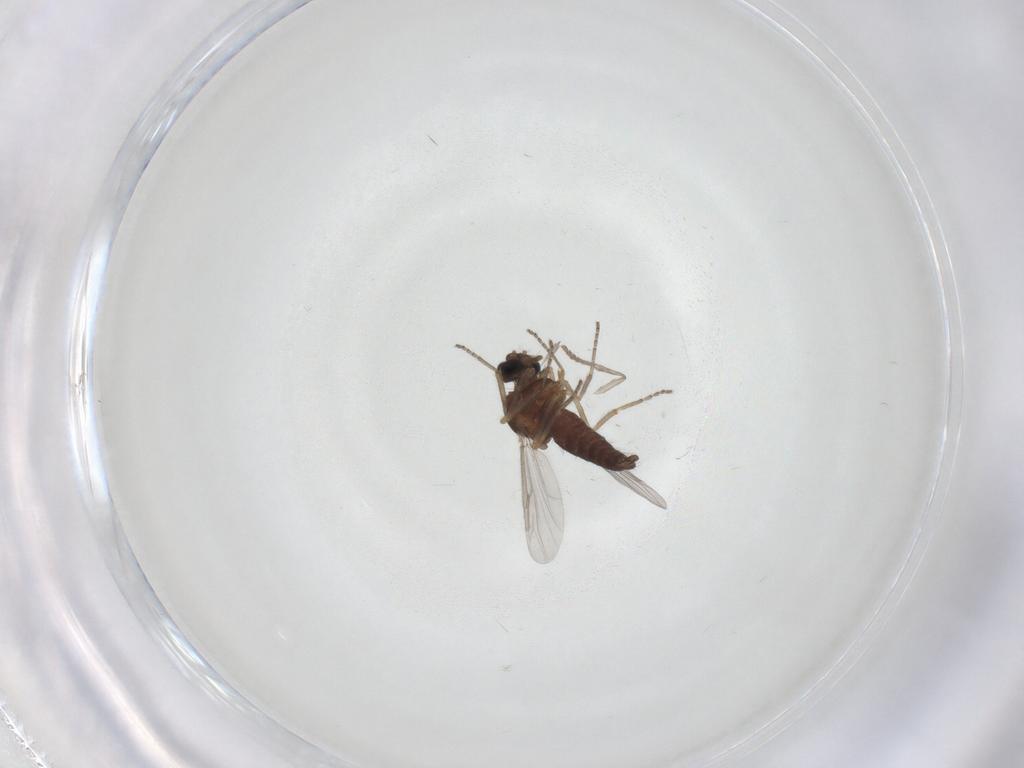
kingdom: Animalia
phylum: Arthropoda
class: Insecta
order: Diptera
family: Ceratopogonidae
